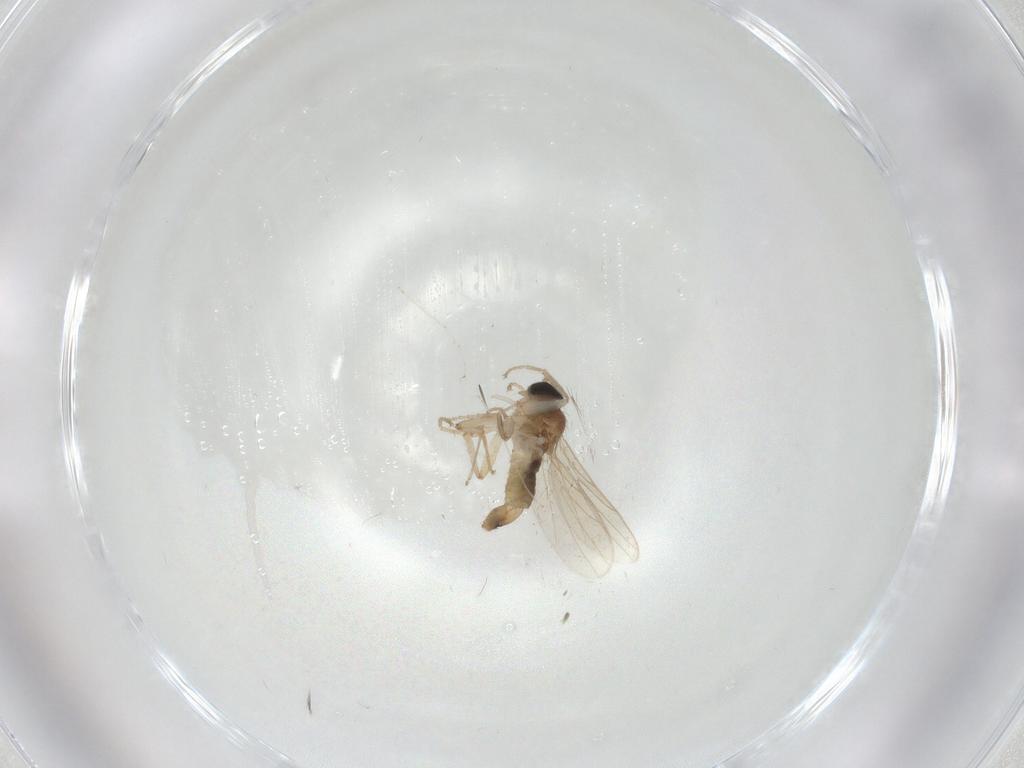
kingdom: Animalia
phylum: Arthropoda
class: Insecta
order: Diptera
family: Hybotidae
